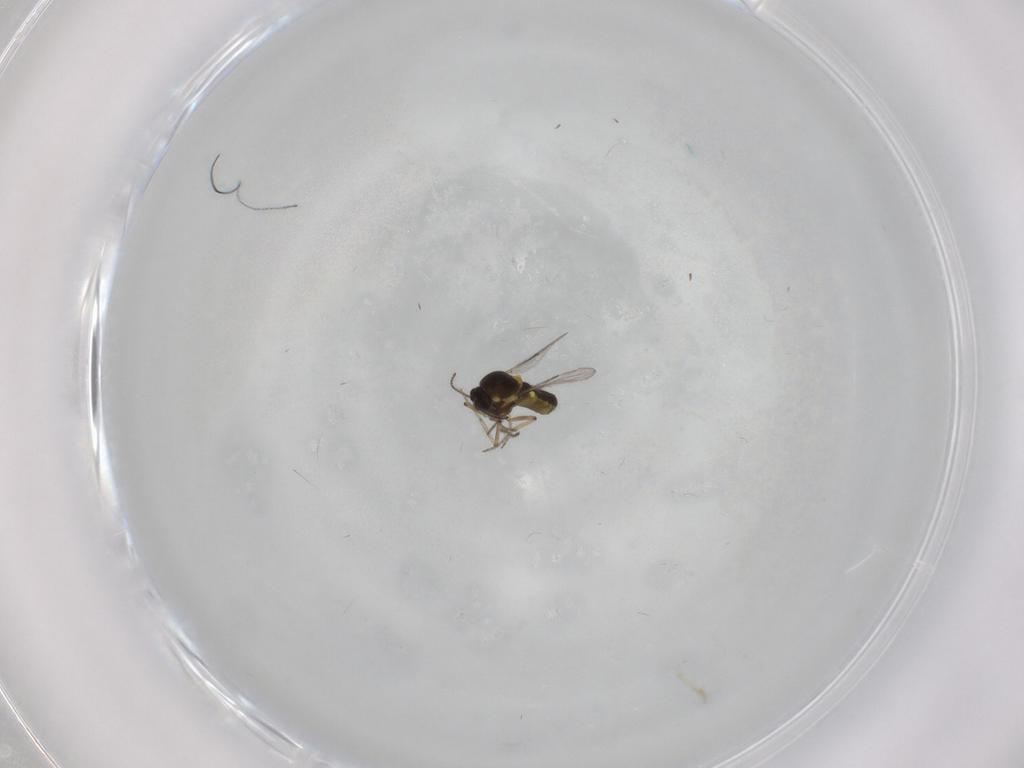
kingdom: Animalia
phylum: Arthropoda
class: Insecta
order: Diptera
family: Ceratopogonidae
